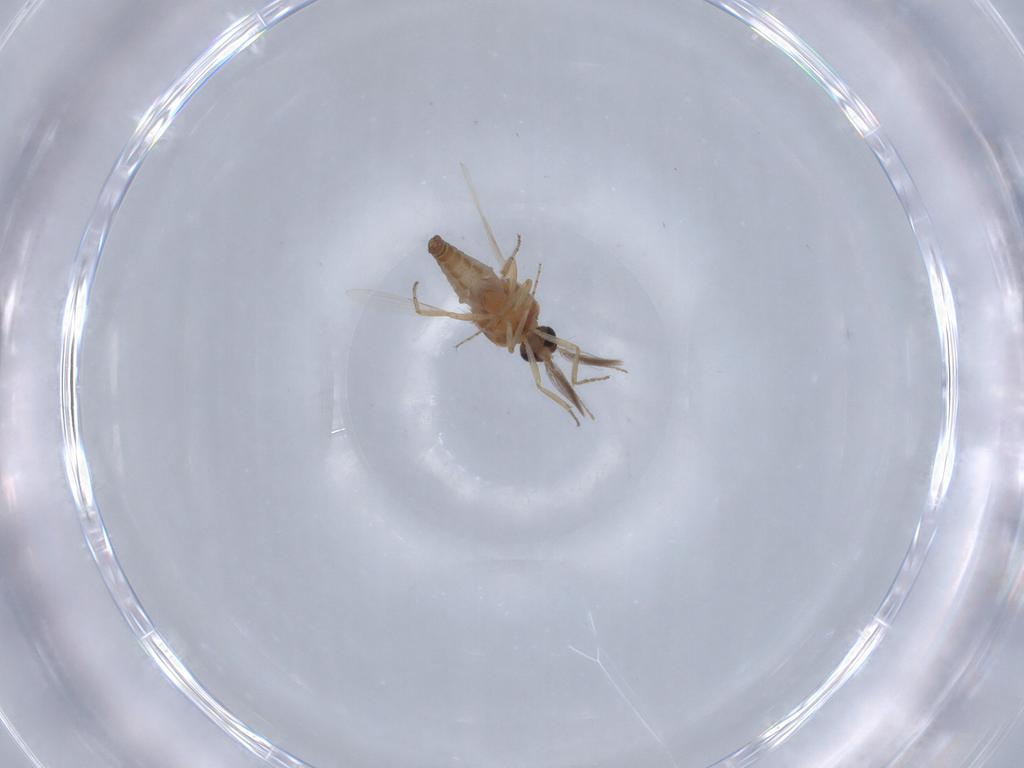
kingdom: Animalia
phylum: Arthropoda
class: Insecta
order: Diptera
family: Ceratopogonidae
